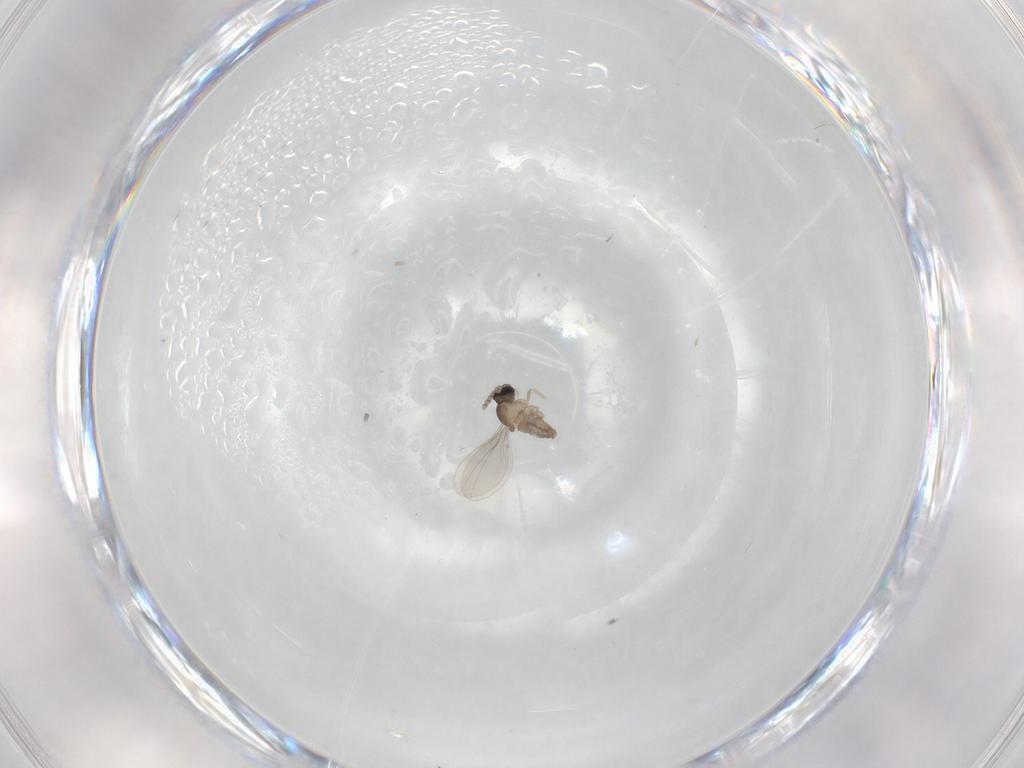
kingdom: Animalia
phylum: Arthropoda
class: Insecta
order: Diptera
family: Cecidomyiidae
